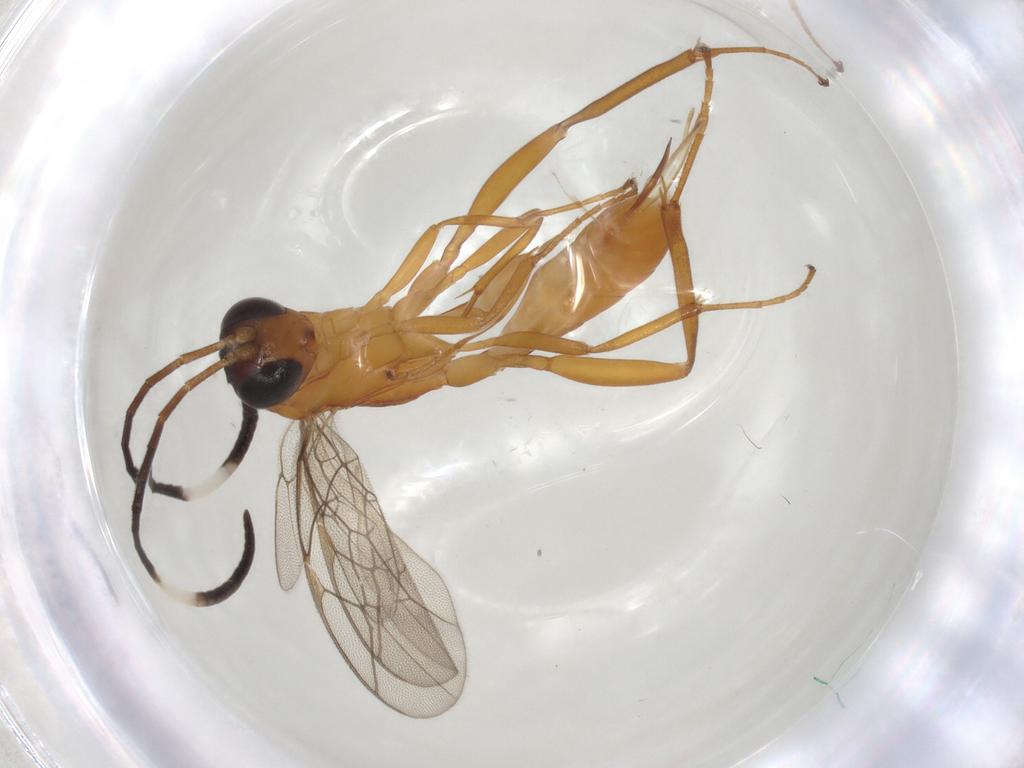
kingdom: Animalia
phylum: Arthropoda
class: Insecta
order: Hymenoptera
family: Ichneumonidae
